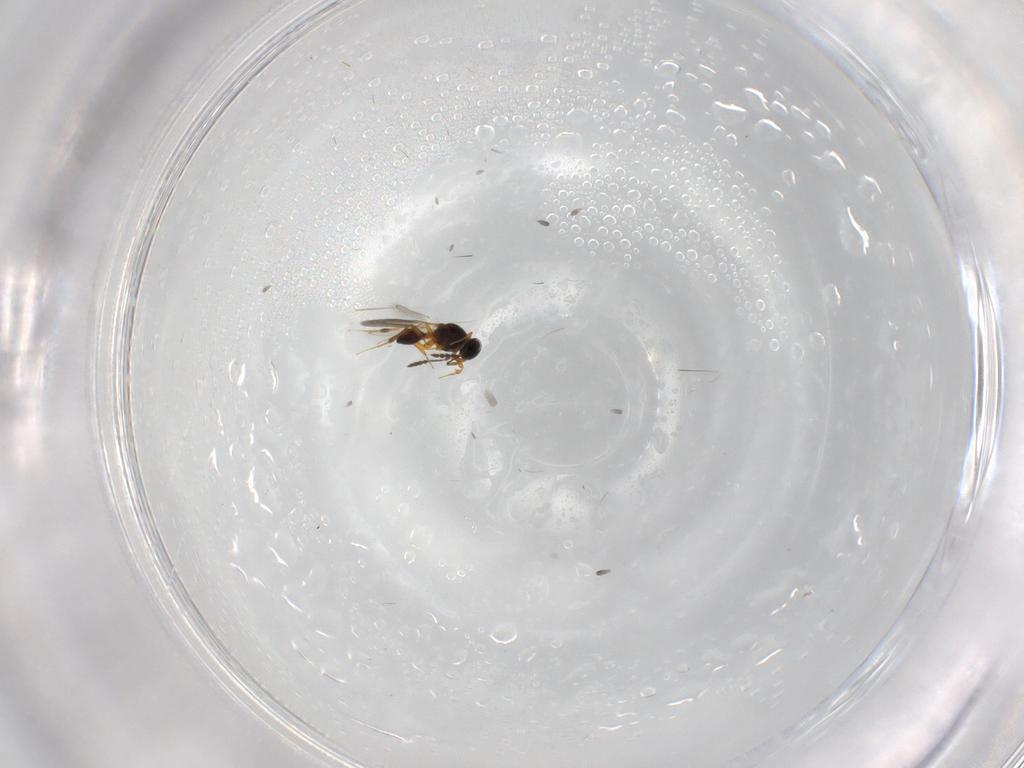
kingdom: Animalia
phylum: Arthropoda
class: Insecta
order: Hymenoptera
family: Platygastridae
